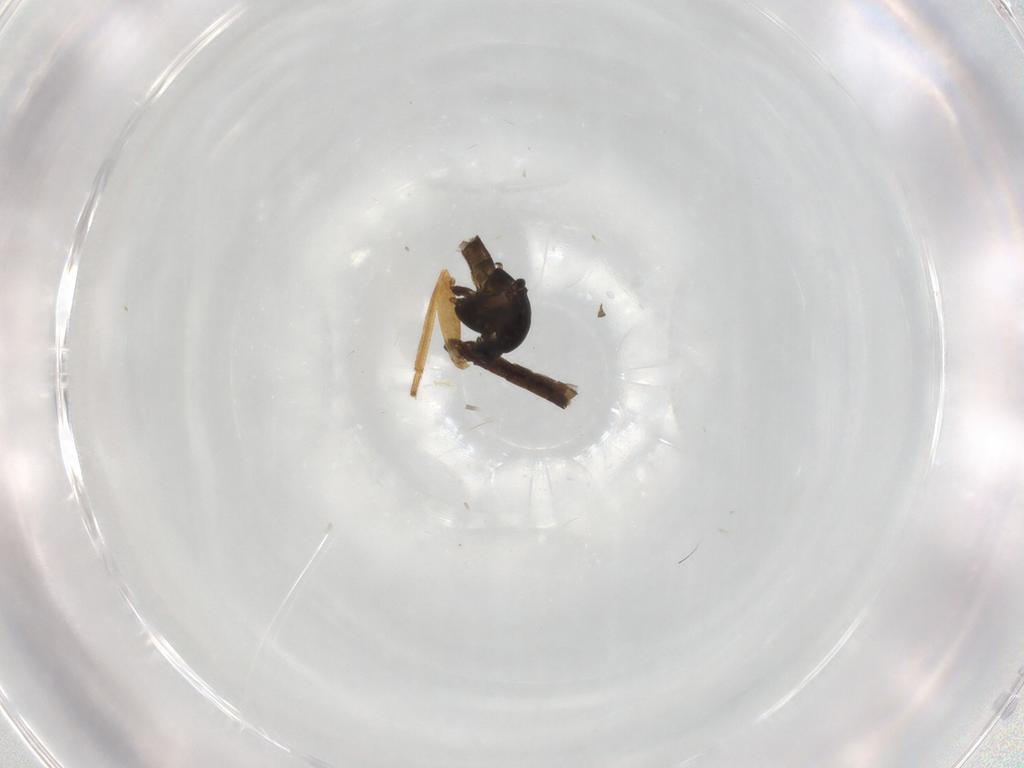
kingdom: Animalia
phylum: Arthropoda
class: Insecta
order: Diptera
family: Chironomidae
